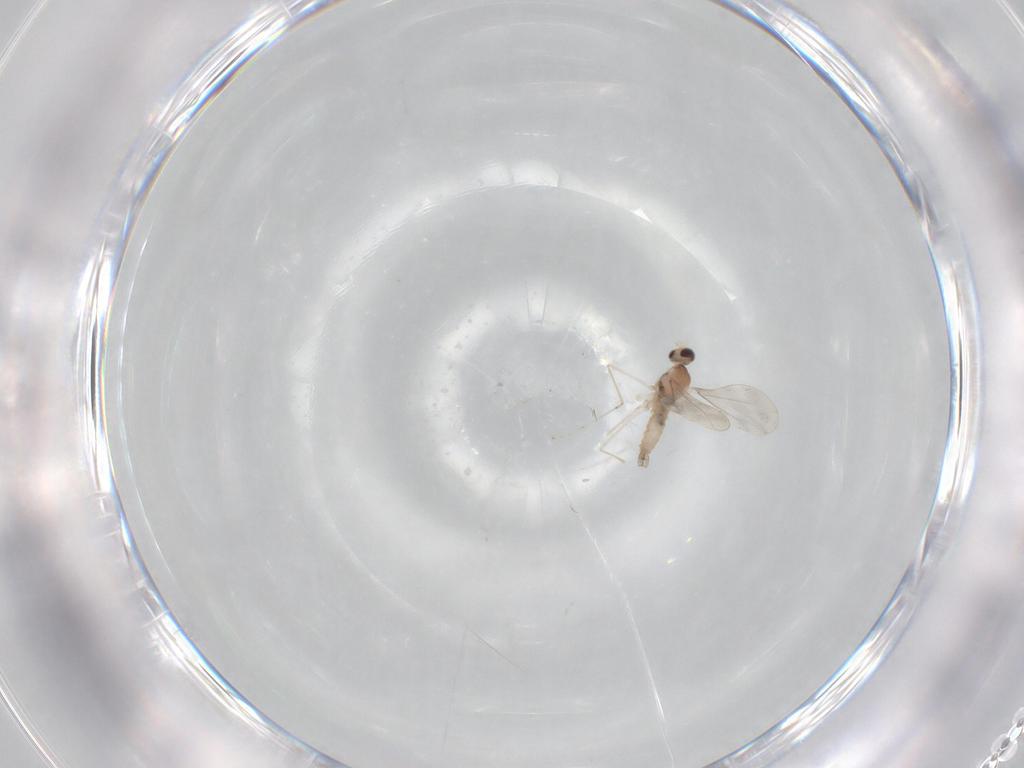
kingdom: Animalia
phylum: Arthropoda
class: Insecta
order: Diptera
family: Cecidomyiidae
